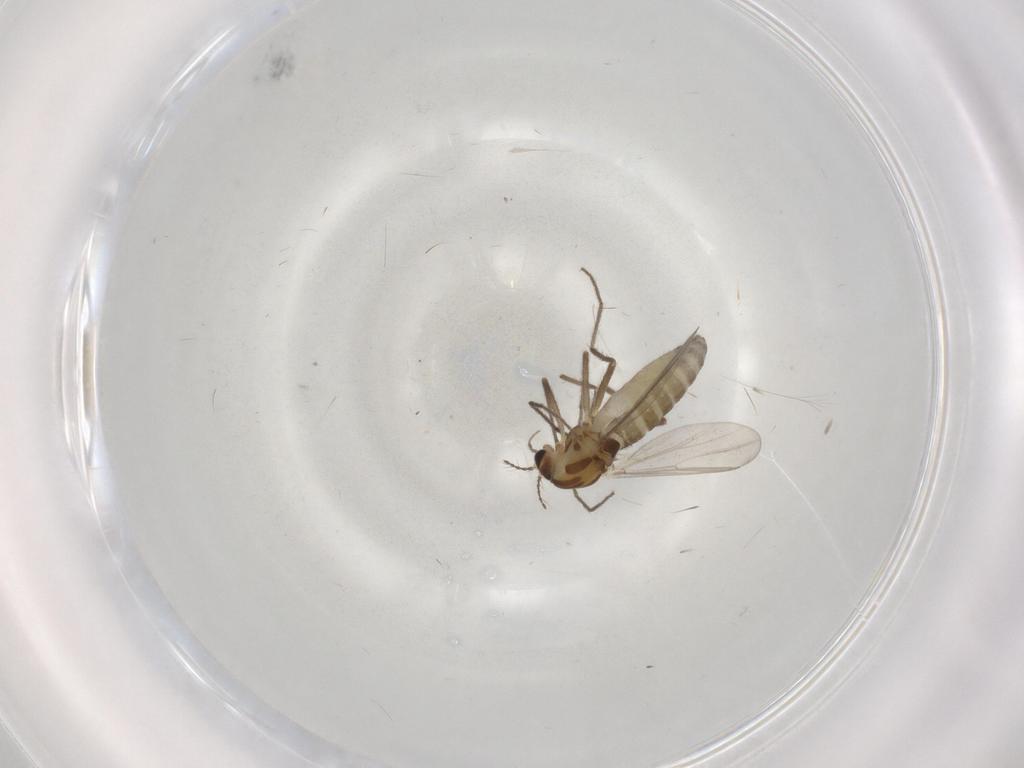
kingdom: Animalia
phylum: Arthropoda
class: Insecta
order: Diptera
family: Chironomidae
